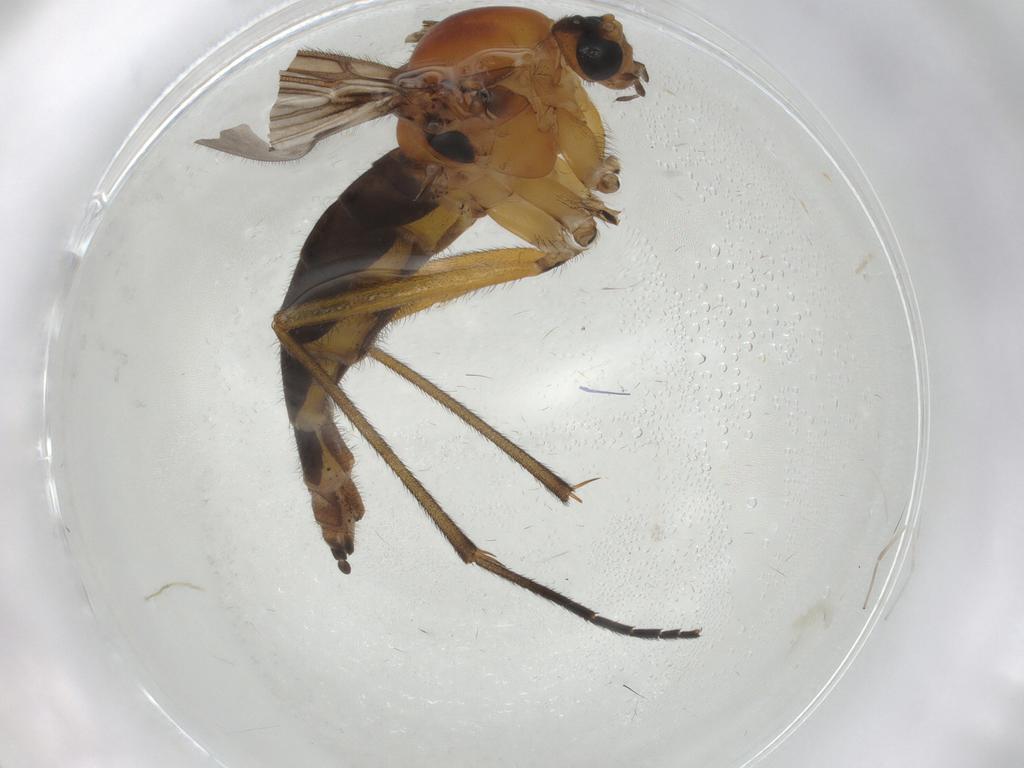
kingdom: Animalia
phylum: Arthropoda
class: Insecta
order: Diptera
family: Sciaridae
